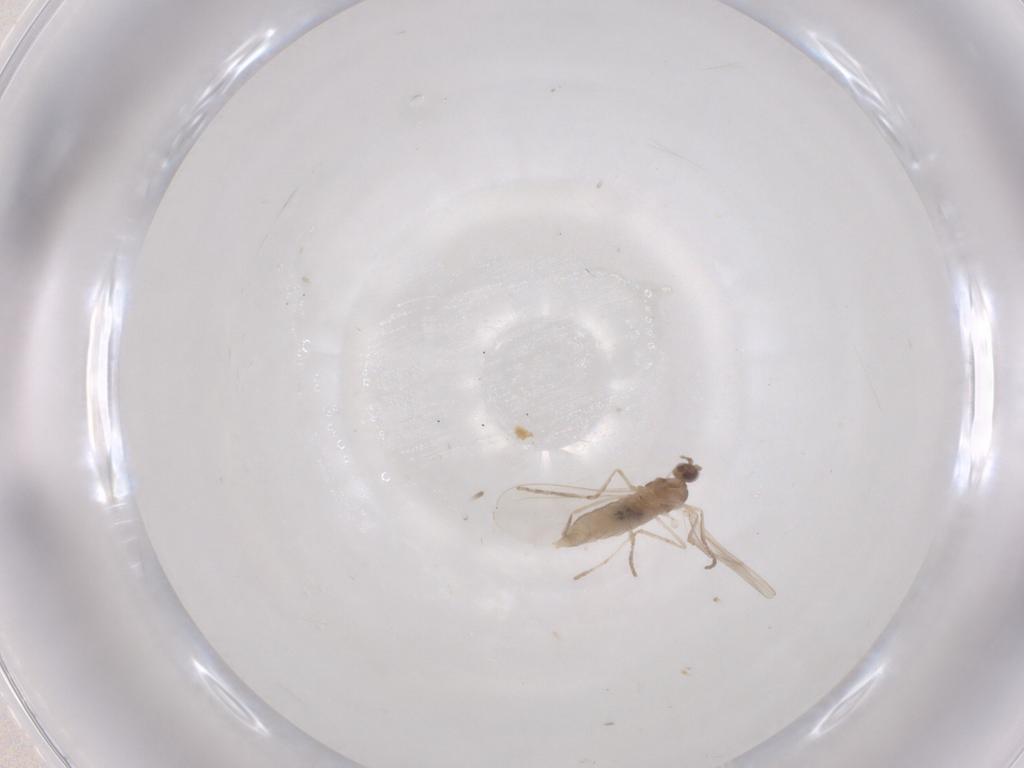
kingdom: Animalia
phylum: Arthropoda
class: Insecta
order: Diptera
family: Cecidomyiidae
